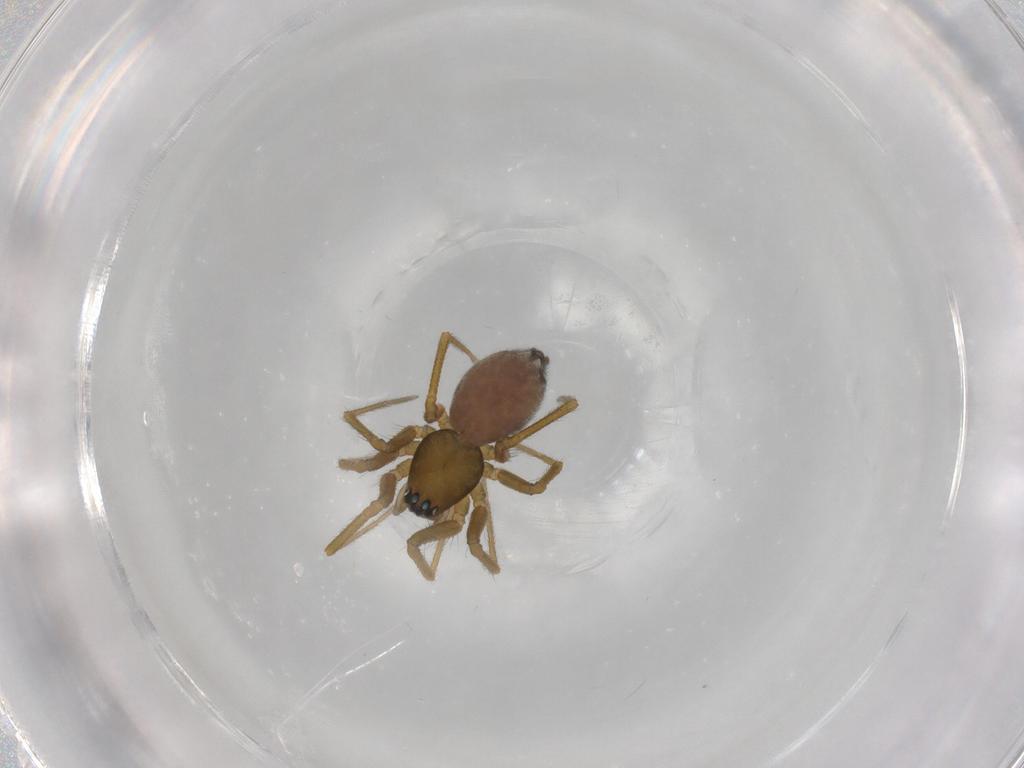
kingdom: Animalia
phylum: Arthropoda
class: Arachnida
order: Araneae
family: Linyphiidae
